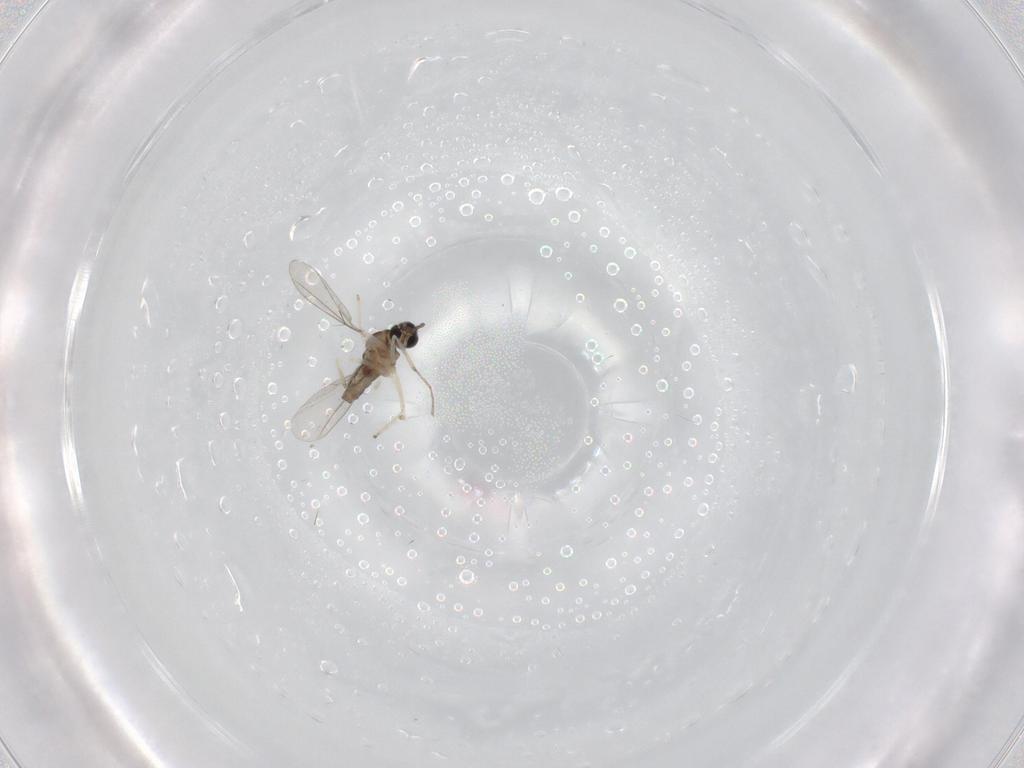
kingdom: Animalia
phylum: Arthropoda
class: Insecta
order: Diptera
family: Cecidomyiidae
